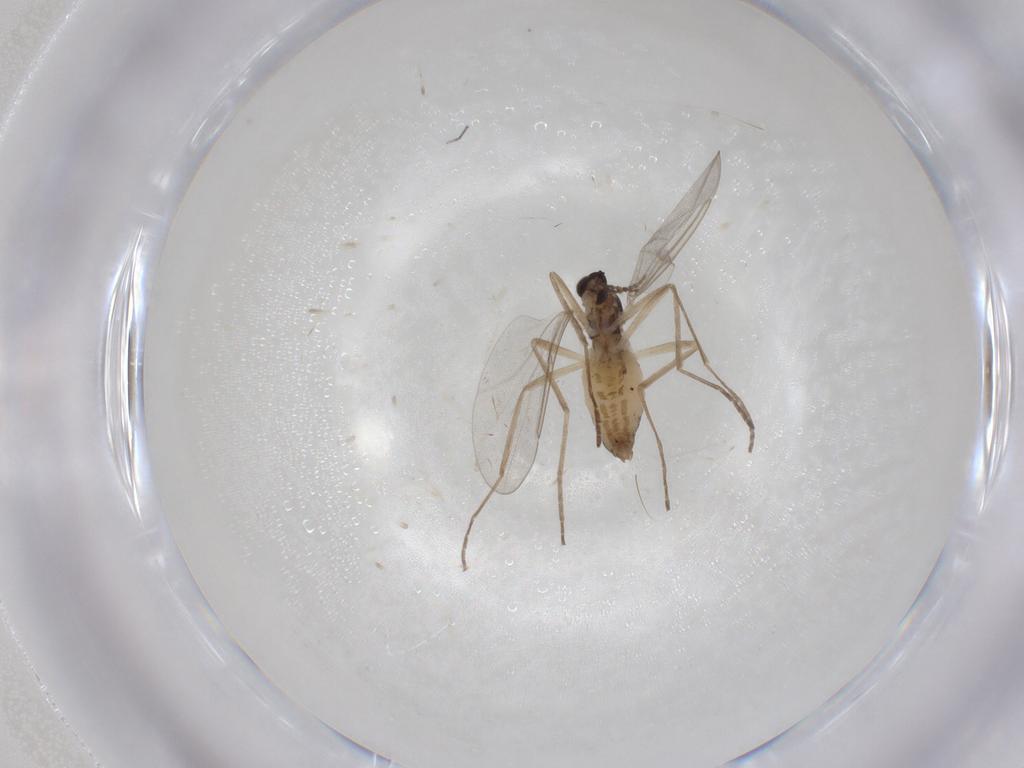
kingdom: Animalia
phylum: Arthropoda
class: Insecta
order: Diptera
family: Cecidomyiidae
